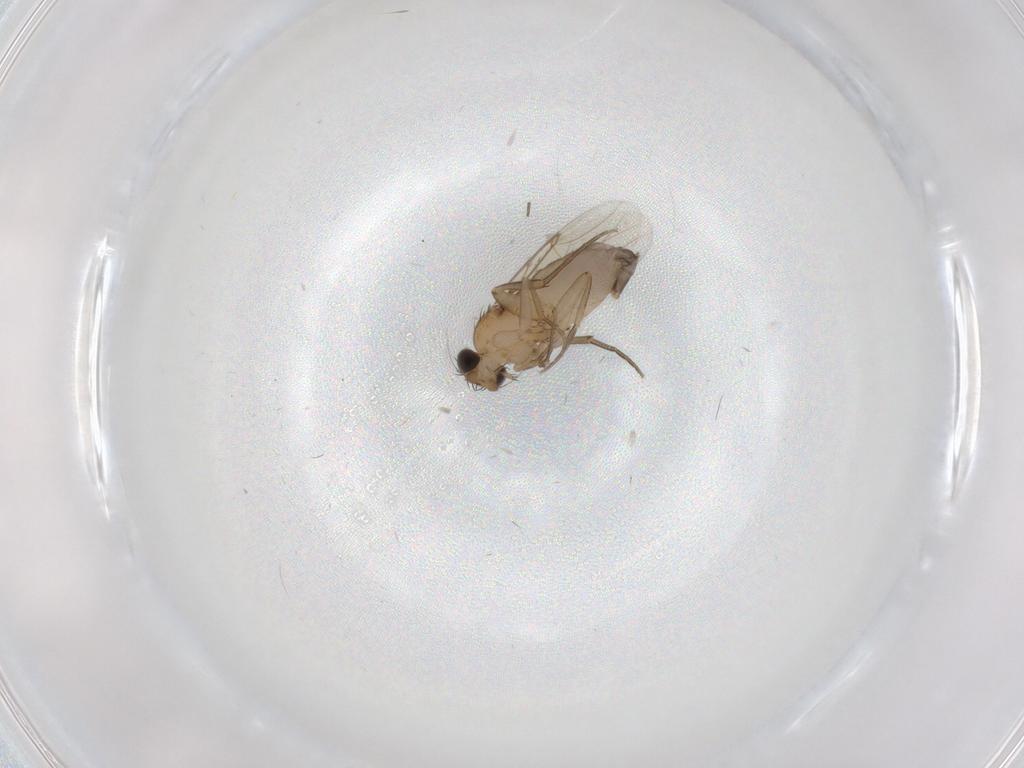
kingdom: Animalia
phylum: Arthropoda
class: Insecta
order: Diptera
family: Phoridae
